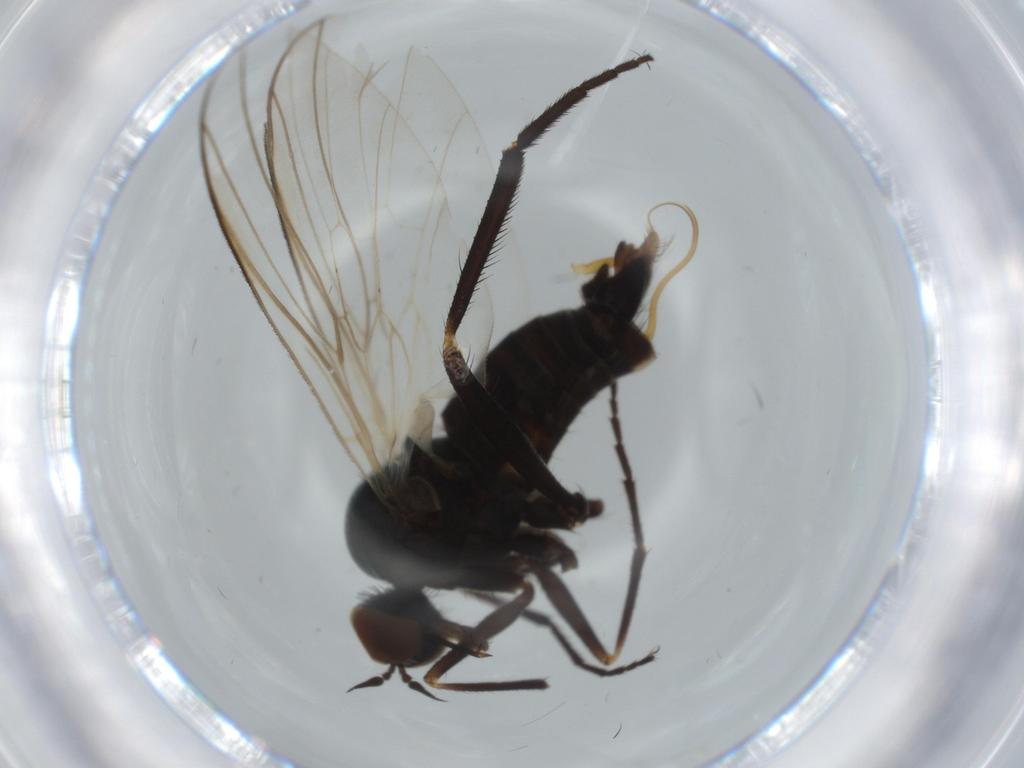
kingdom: Animalia
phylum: Arthropoda
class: Insecta
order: Diptera
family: Empididae
